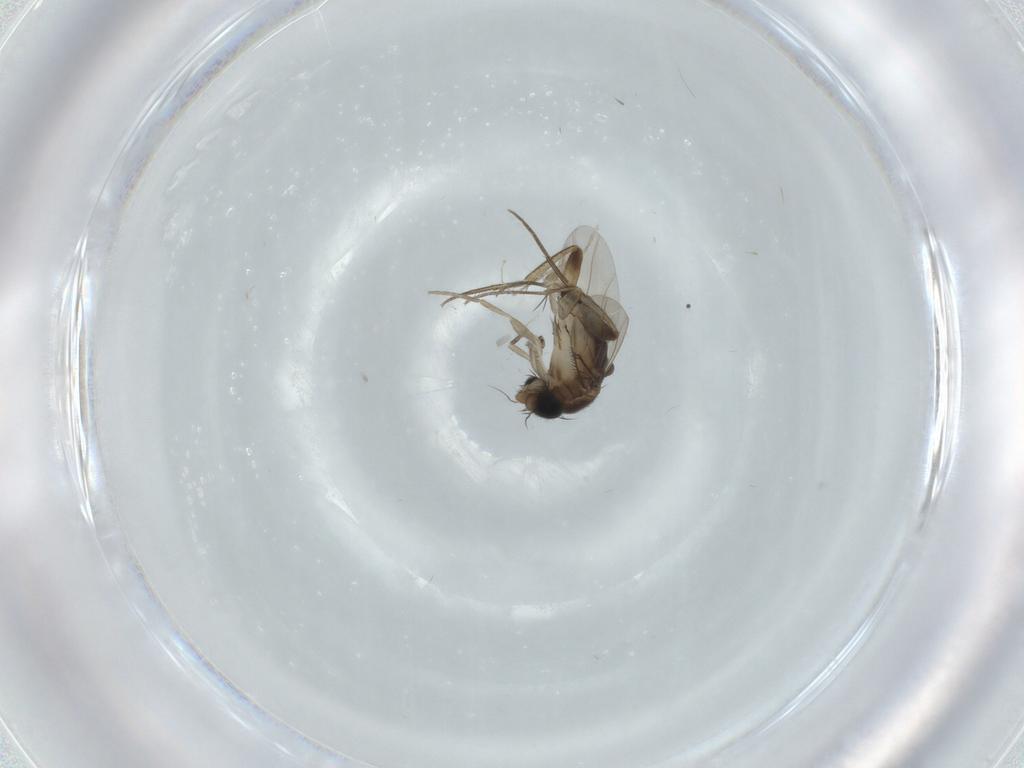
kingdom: Animalia
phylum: Arthropoda
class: Insecta
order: Diptera
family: Phoridae
